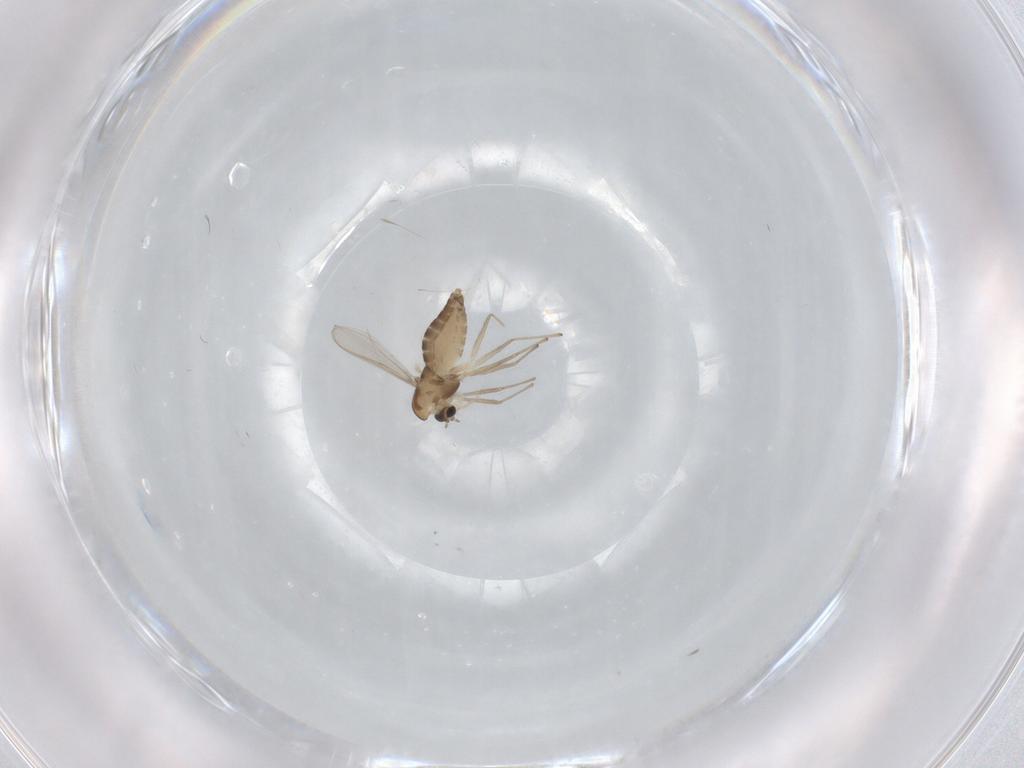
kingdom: Animalia
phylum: Arthropoda
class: Insecta
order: Diptera
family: Chironomidae
